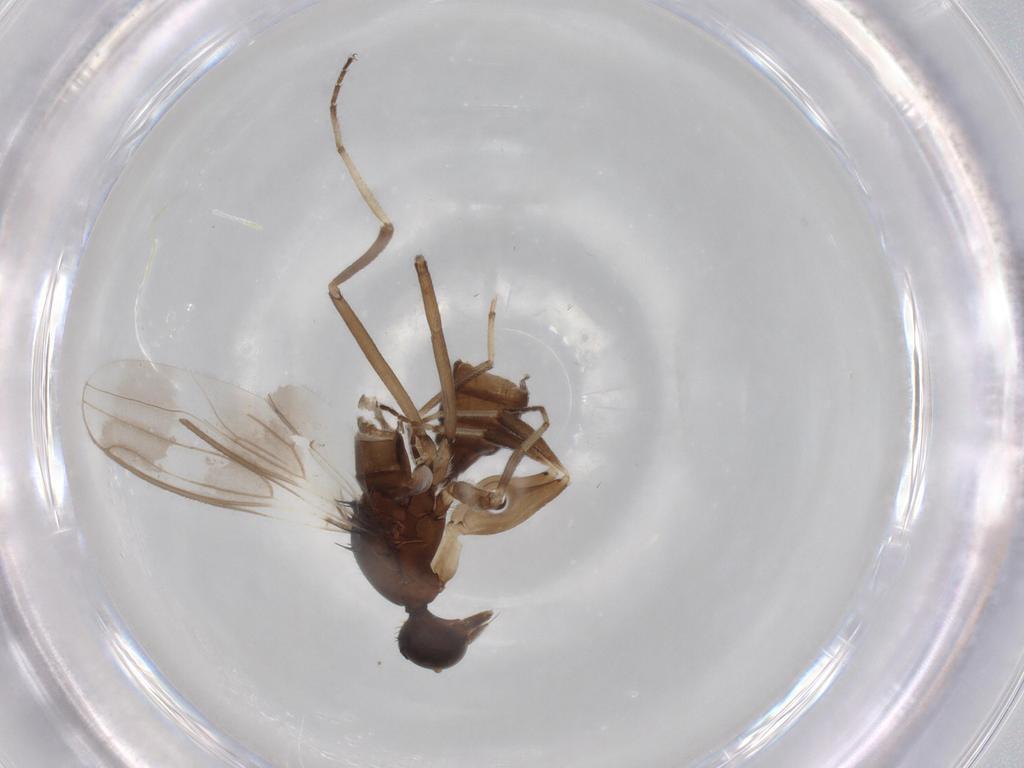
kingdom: Animalia
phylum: Arthropoda
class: Insecta
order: Diptera
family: Hybotidae
